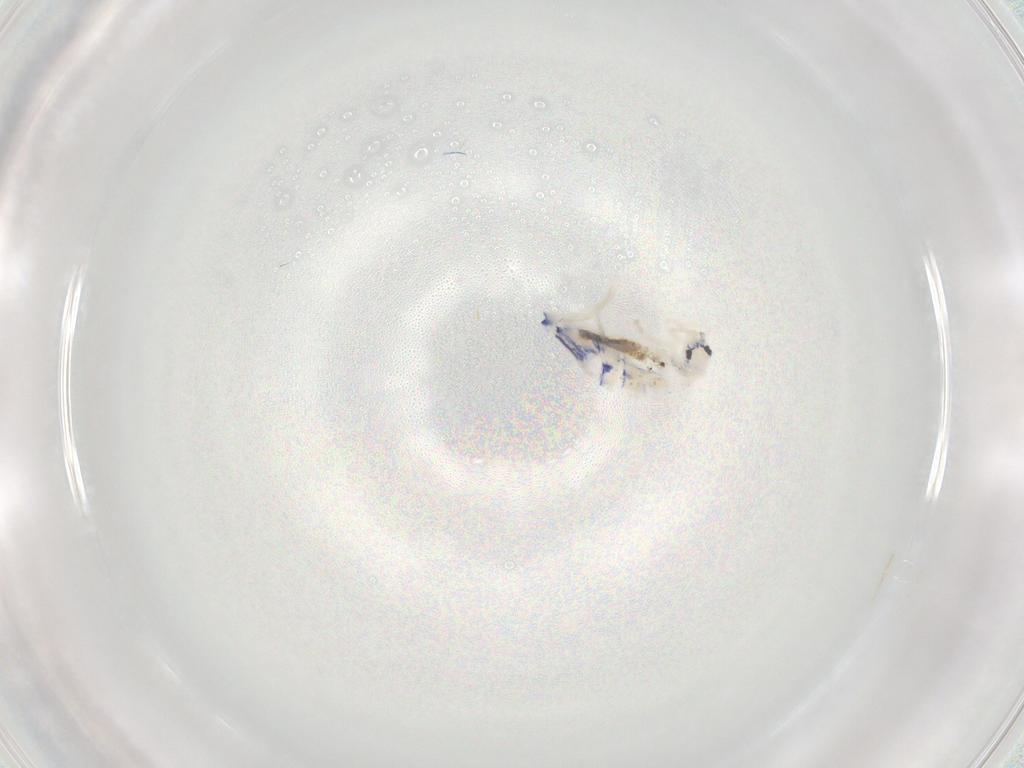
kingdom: Animalia
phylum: Arthropoda
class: Collembola
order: Entomobryomorpha
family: Entomobryidae
